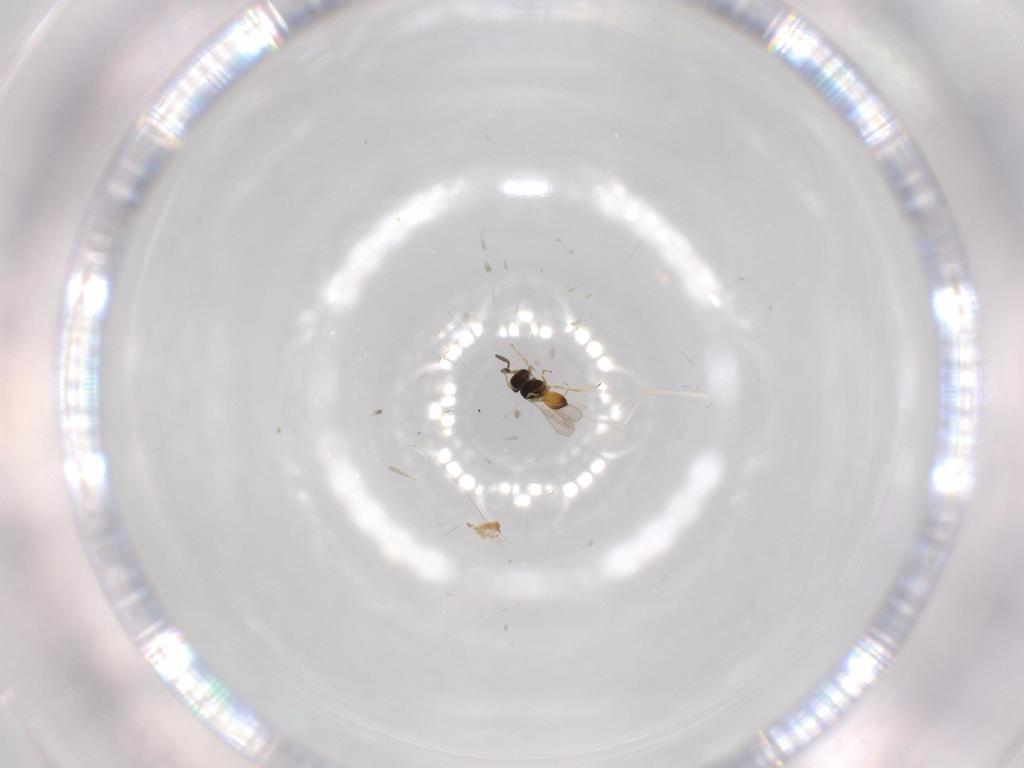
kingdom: Animalia
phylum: Arthropoda
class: Insecta
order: Hymenoptera
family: Scelionidae
